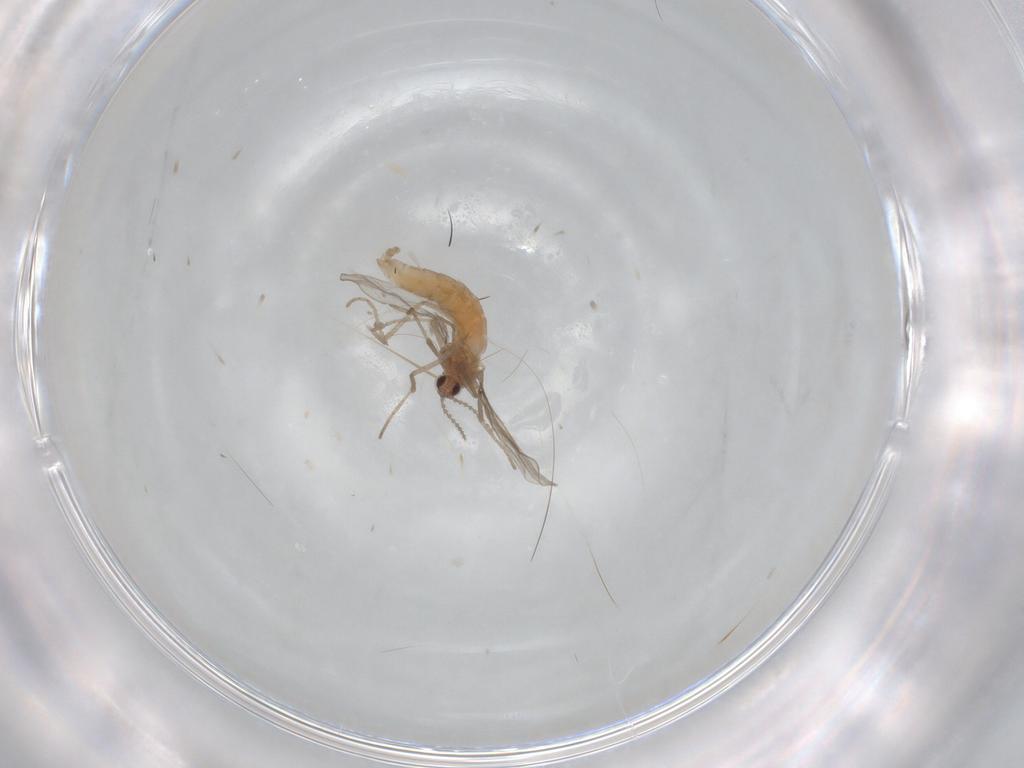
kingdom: Animalia
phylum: Arthropoda
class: Insecta
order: Diptera
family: Cecidomyiidae
